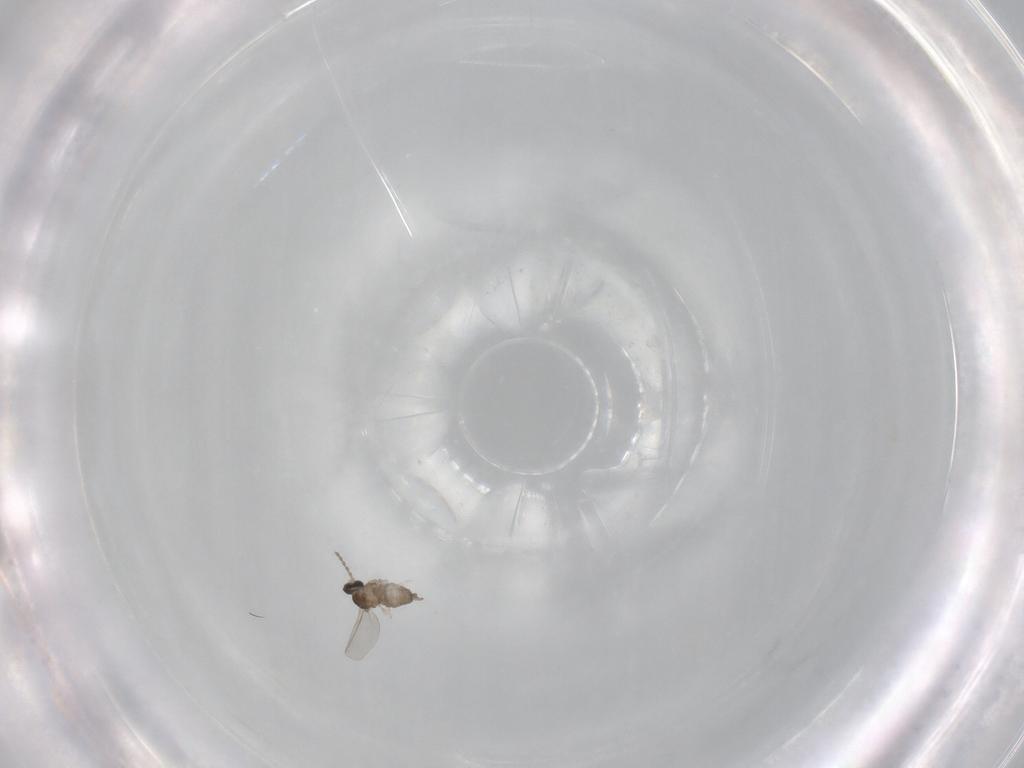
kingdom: Animalia
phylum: Arthropoda
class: Insecta
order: Diptera
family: Cecidomyiidae
